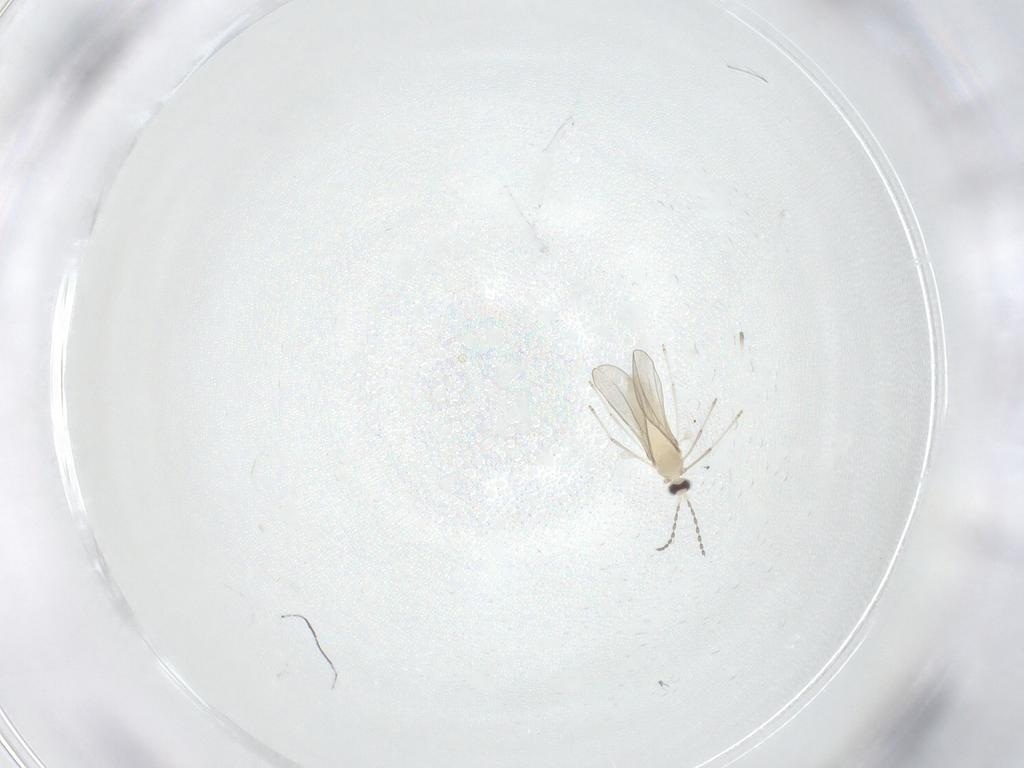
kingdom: Animalia
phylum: Arthropoda
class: Insecta
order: Diptera
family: Cecidomyiidae
